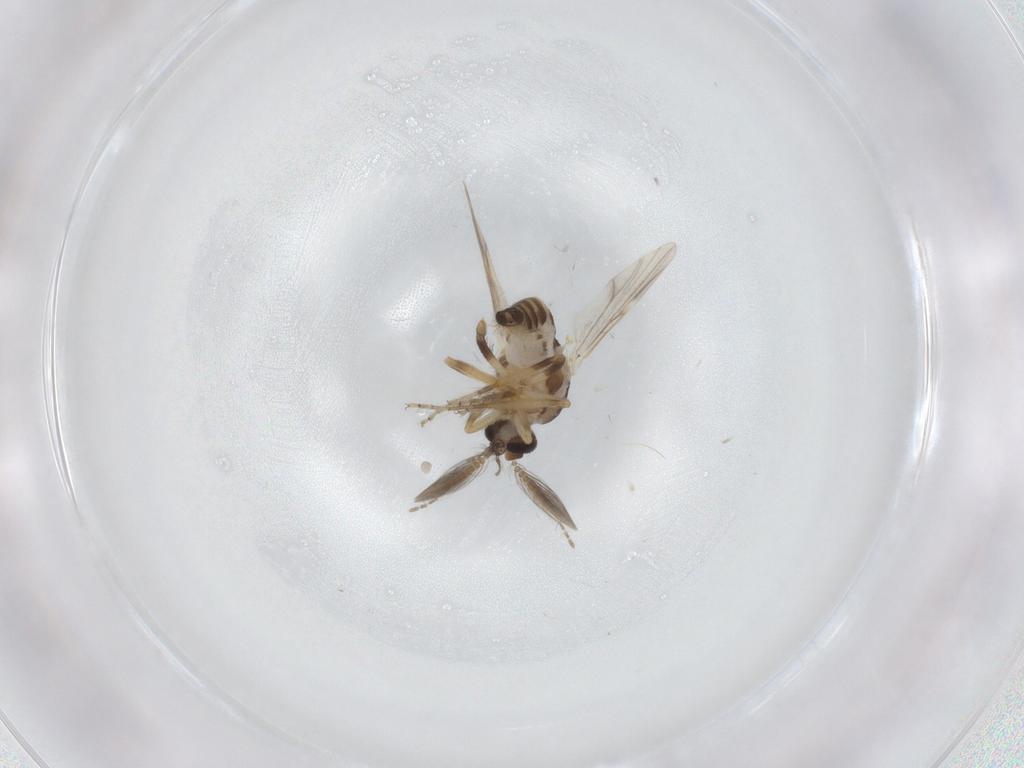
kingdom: Animalia
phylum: Arthropoda
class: Insecta
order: Diptera
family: Ceratopogonidae
